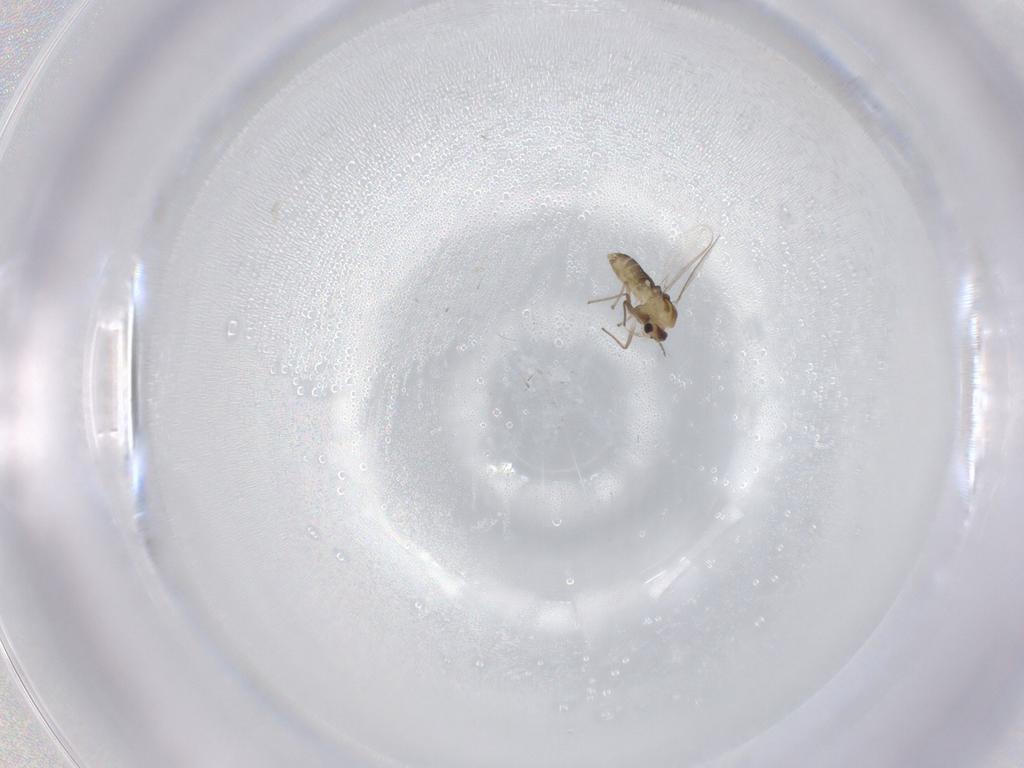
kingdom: Animalia
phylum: Arthropoda
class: Insecta
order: Diptera
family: Chironomidae
